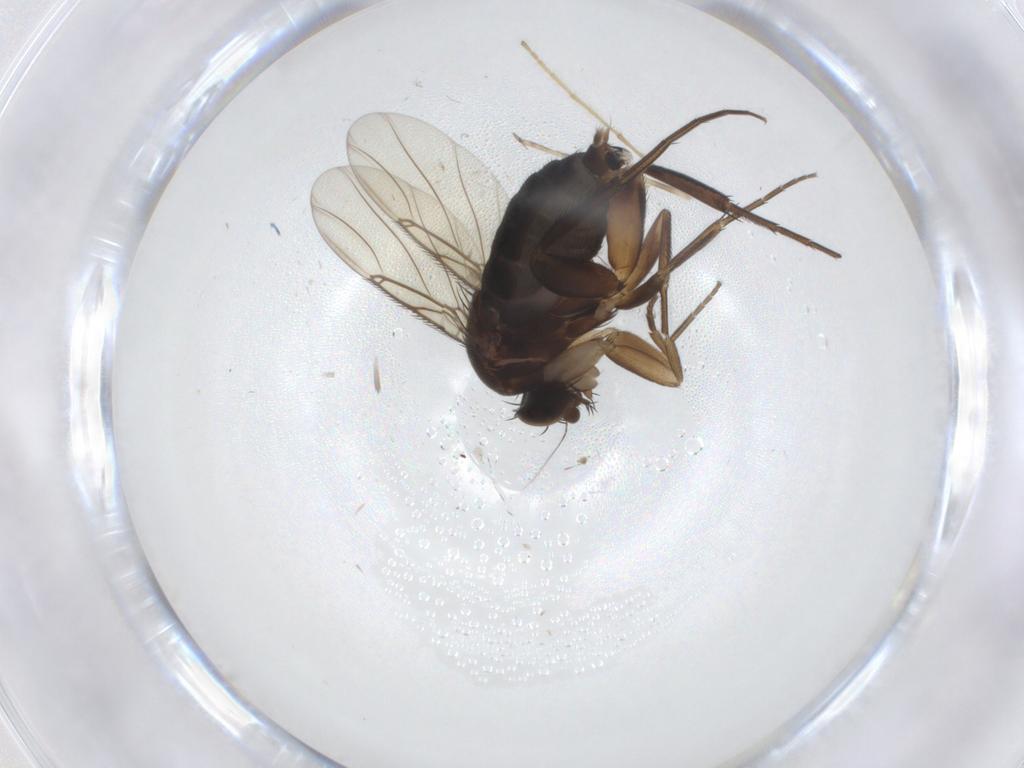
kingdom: Animalia
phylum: Arthropoda
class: Insecta
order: Diptera
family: Phoridae
